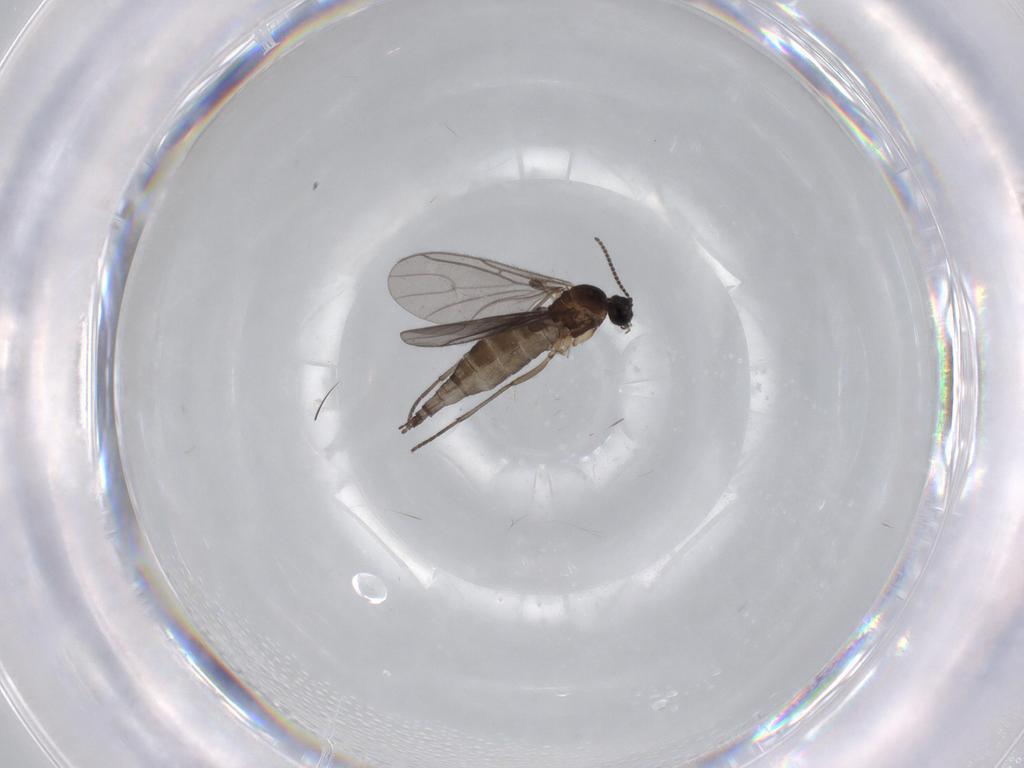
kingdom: Animalia
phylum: Arthropoda
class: Insecta
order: Diptera
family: Sciaridae
